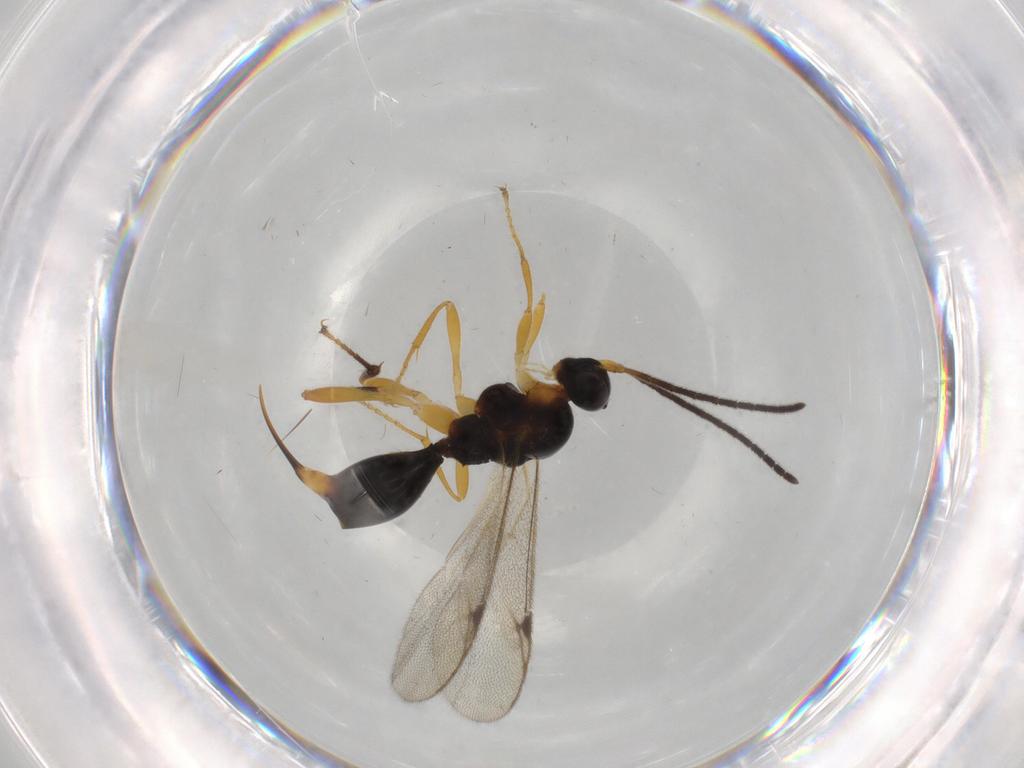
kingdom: Animalia
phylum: Arthropoda
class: Insecta
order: Hymenoptera
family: Proctotrupidae
